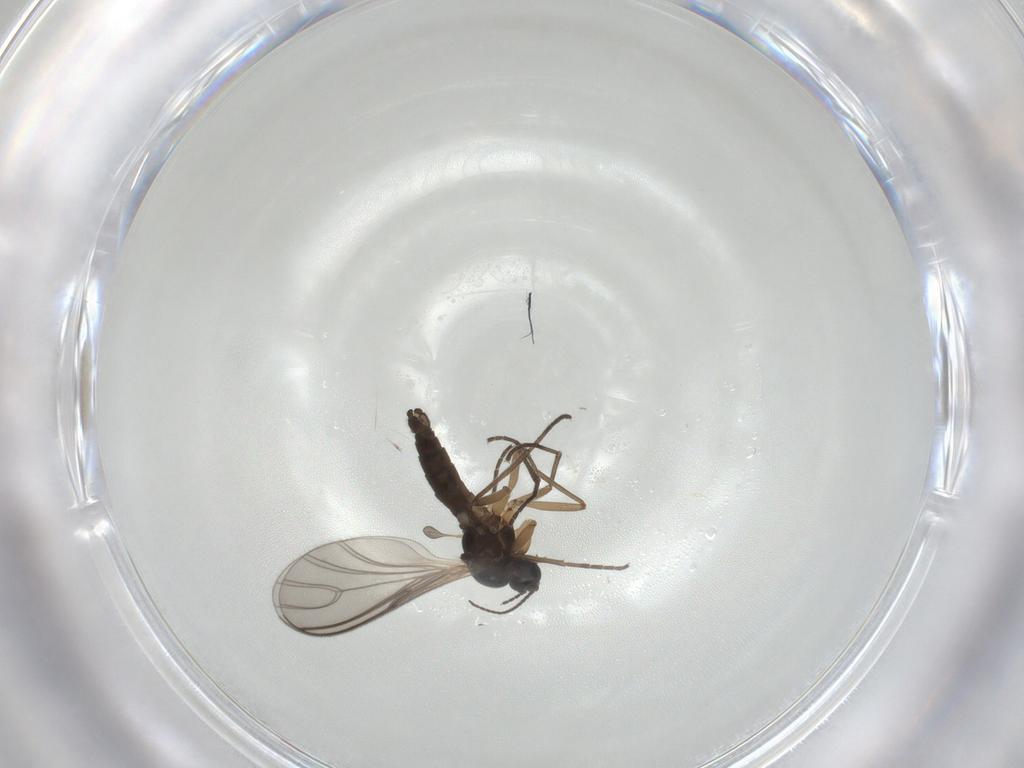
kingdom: Animalia
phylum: Arthropoda
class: Insecta
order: Diptera
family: Sciaridae
